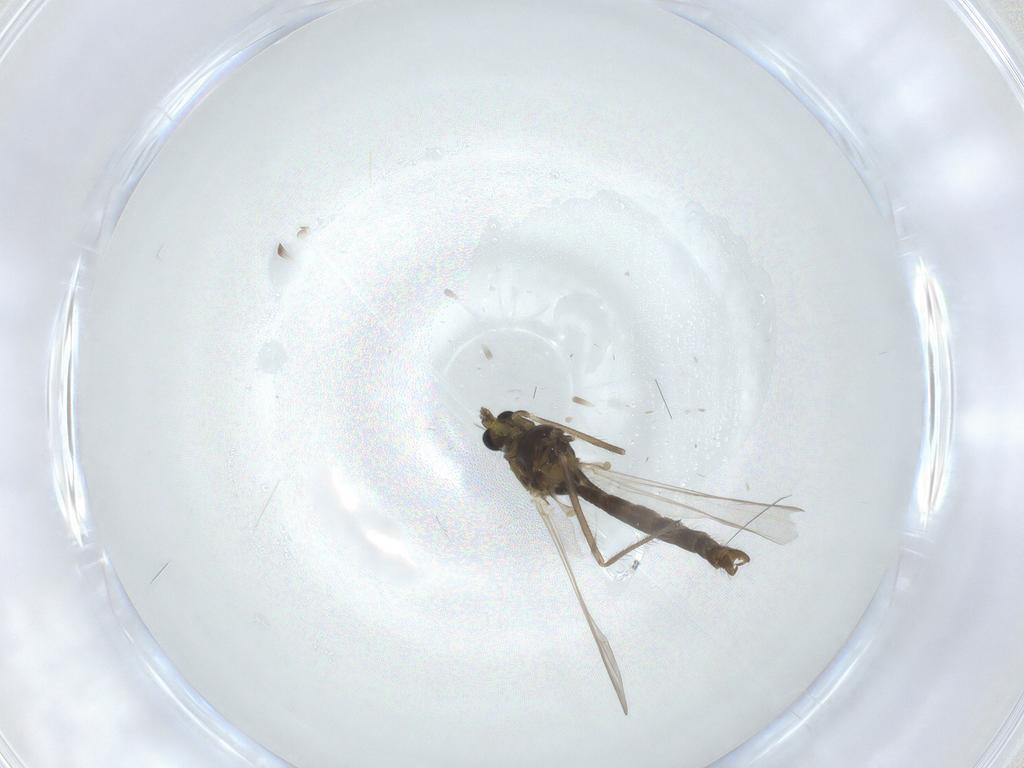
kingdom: Animalia
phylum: Arthropoda
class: Insecta
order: Diptera
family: Chironomidae
